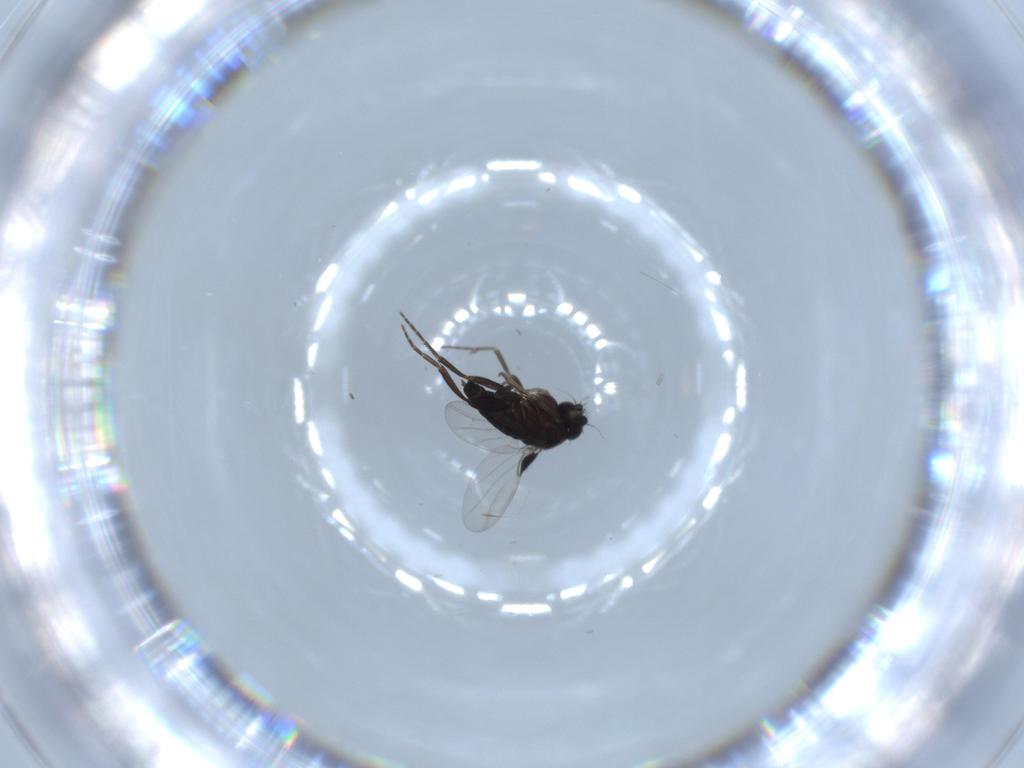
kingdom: Animalia
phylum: Arthropoda
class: Insecta
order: Diptera
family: Phoridae
